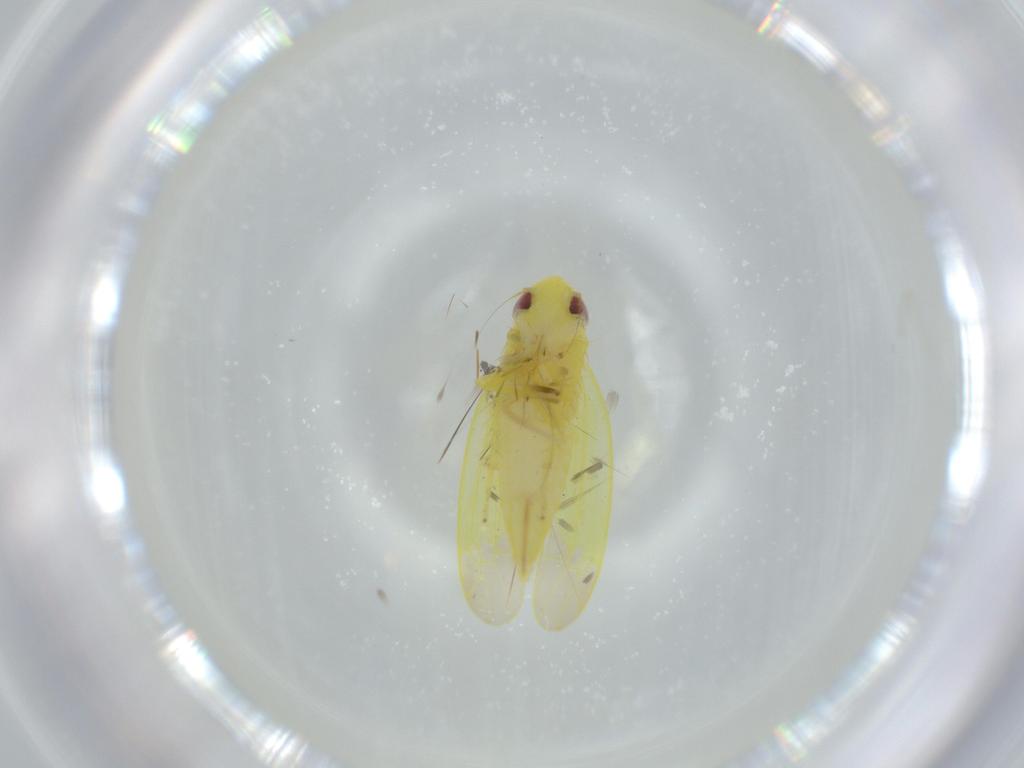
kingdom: Animalia
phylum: Arthropoda
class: Insecta
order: Hemiptera
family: Cicadellidae
